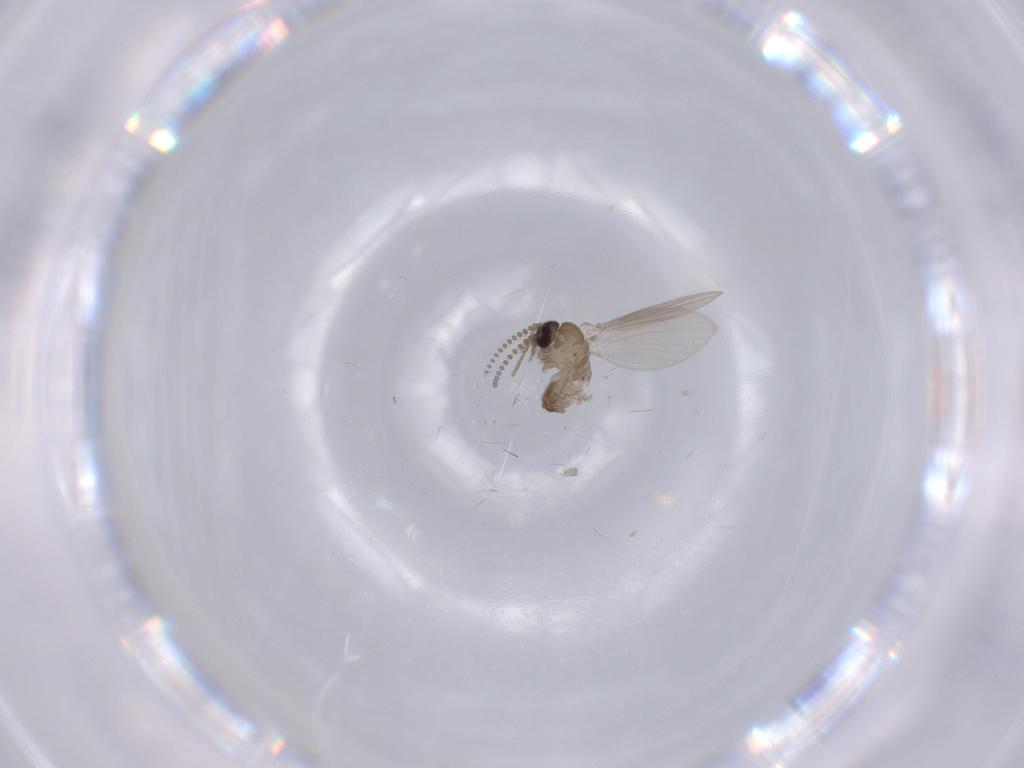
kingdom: Animalia
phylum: Arthropoda
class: Insecta
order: Diptera
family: Psychodidae
